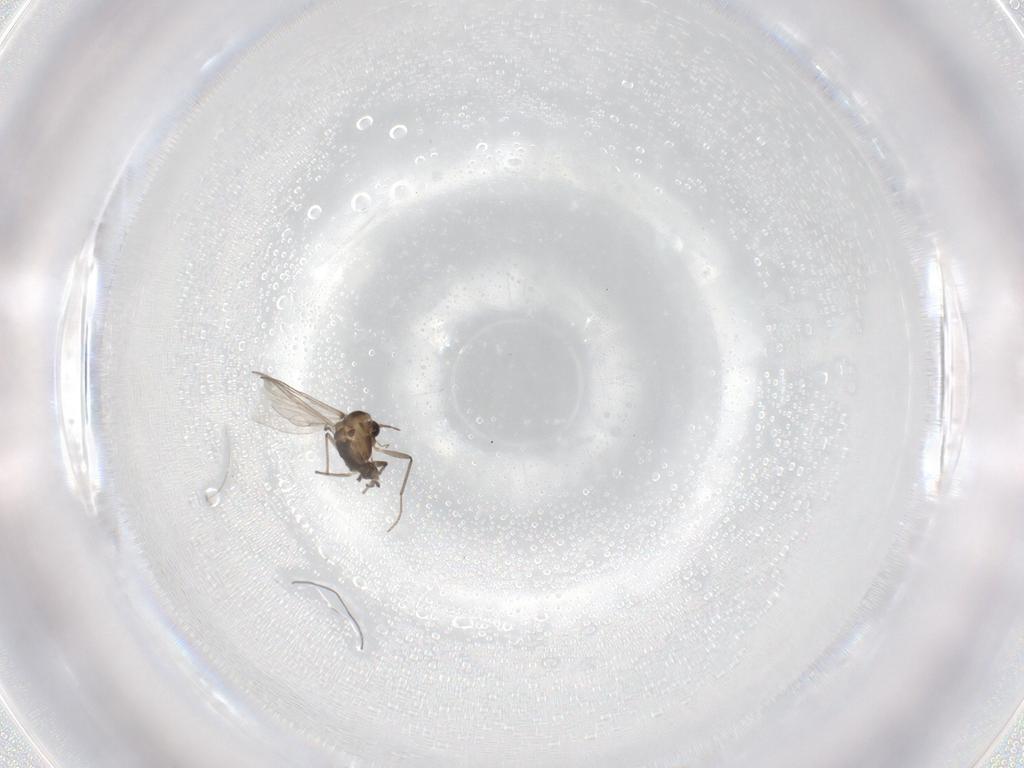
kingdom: Animalia
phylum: Arthropoda
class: Insecta
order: Diptera
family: Chironomidae
